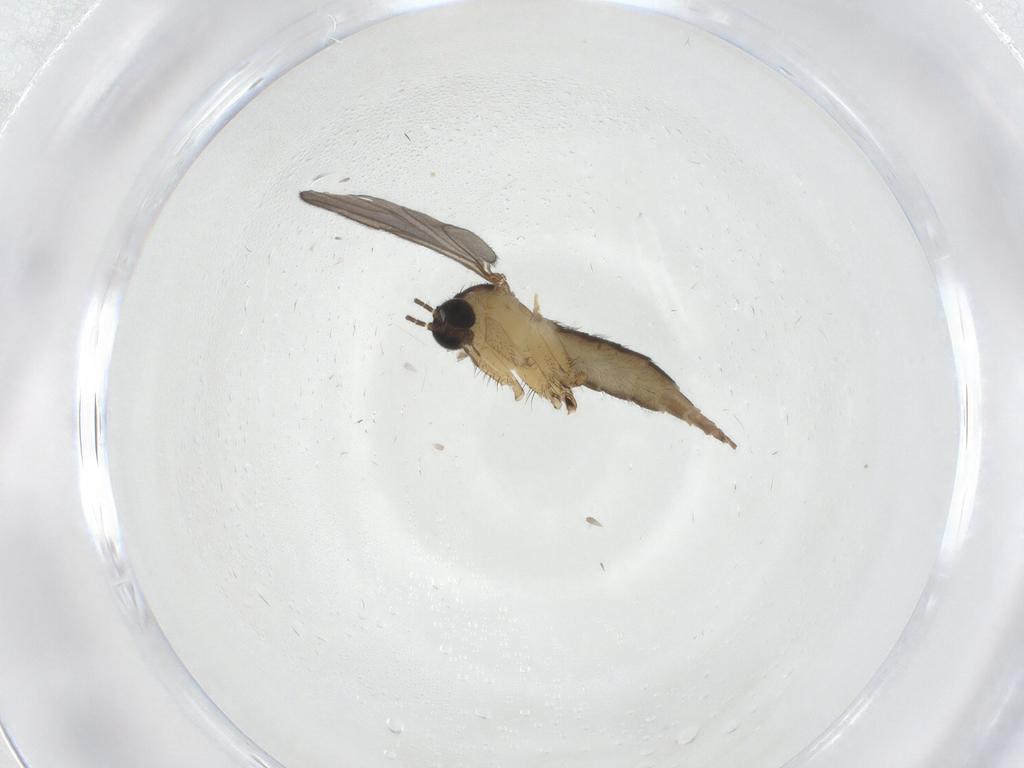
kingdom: Animalia
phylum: Arthropoda
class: Insecta
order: Diptera
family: Sciaridae
